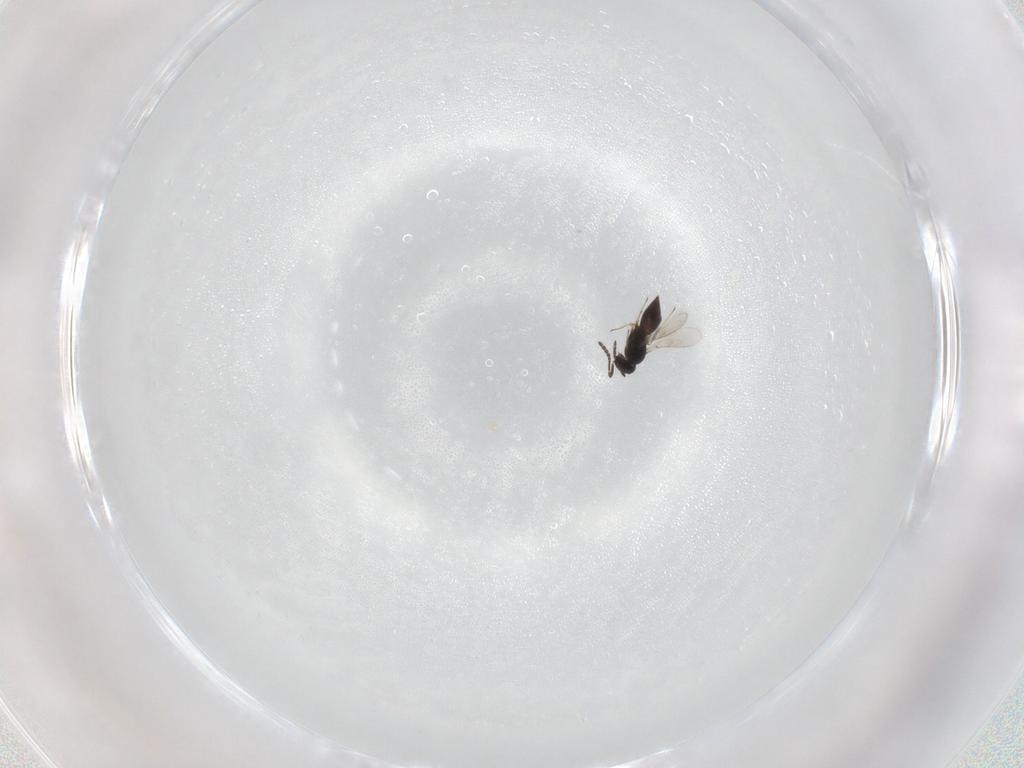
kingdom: Animalia
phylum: Arthropoda
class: Insecta
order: Hymenoptera
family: Scelionidae
